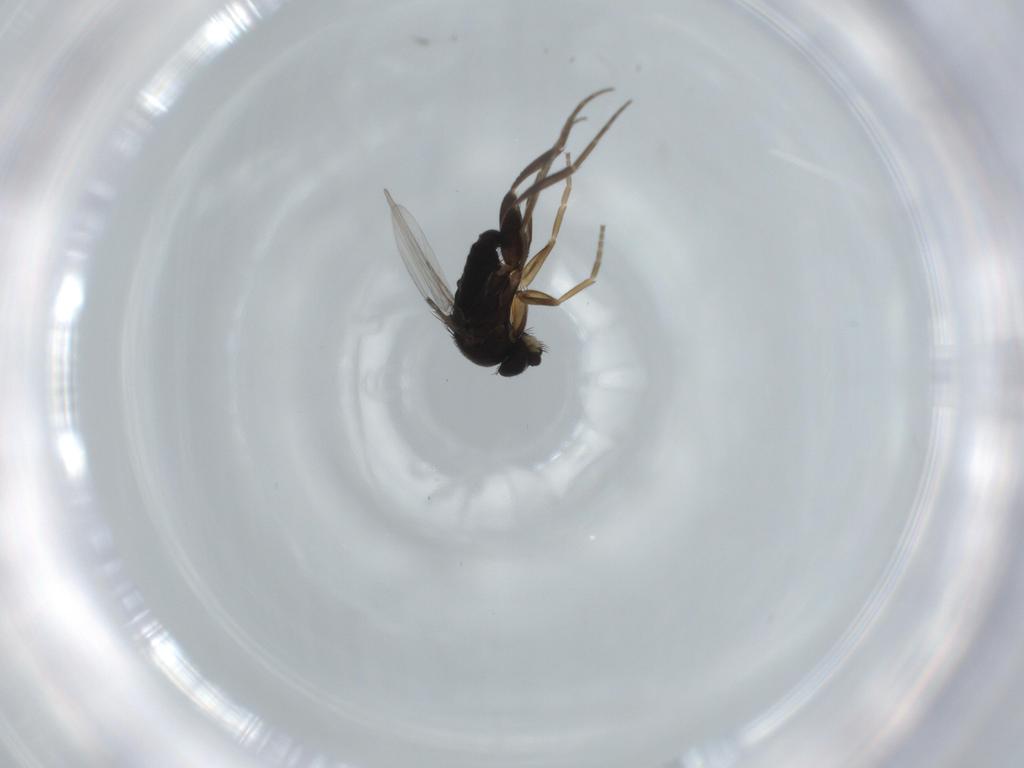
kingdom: Animalia
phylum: Arthropoda
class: Insecta
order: Diptera
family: Phoridae
